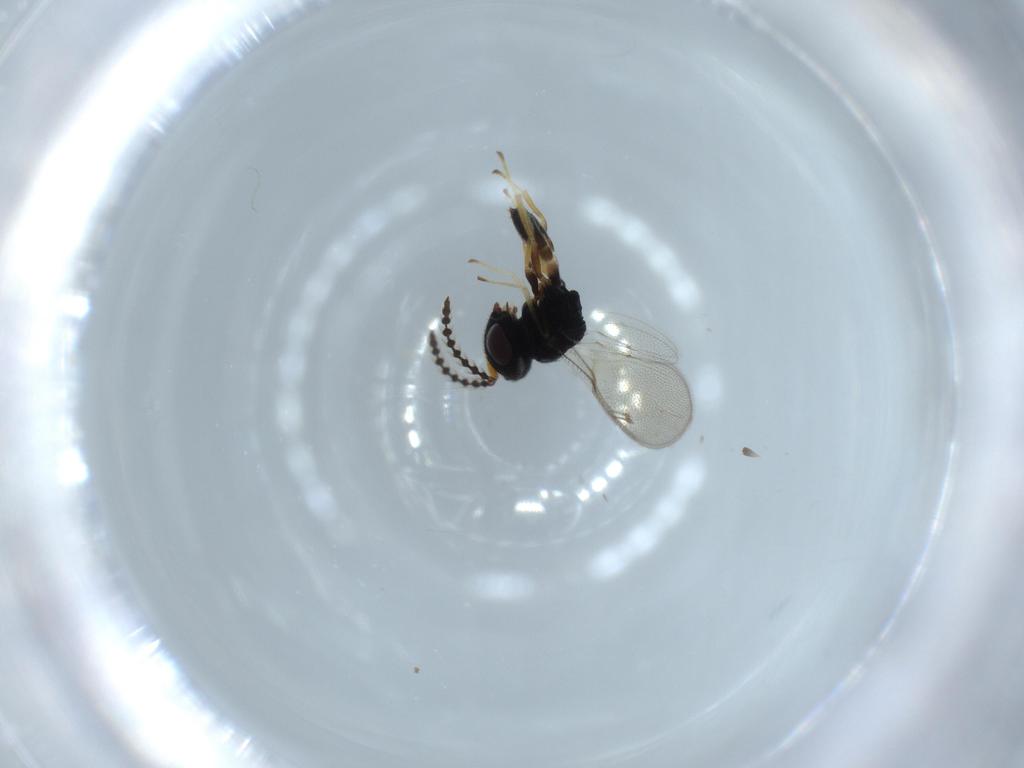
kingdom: Animalia
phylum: Arthropoda
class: Insecta
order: Hymenoptera
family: Pteromalidae
